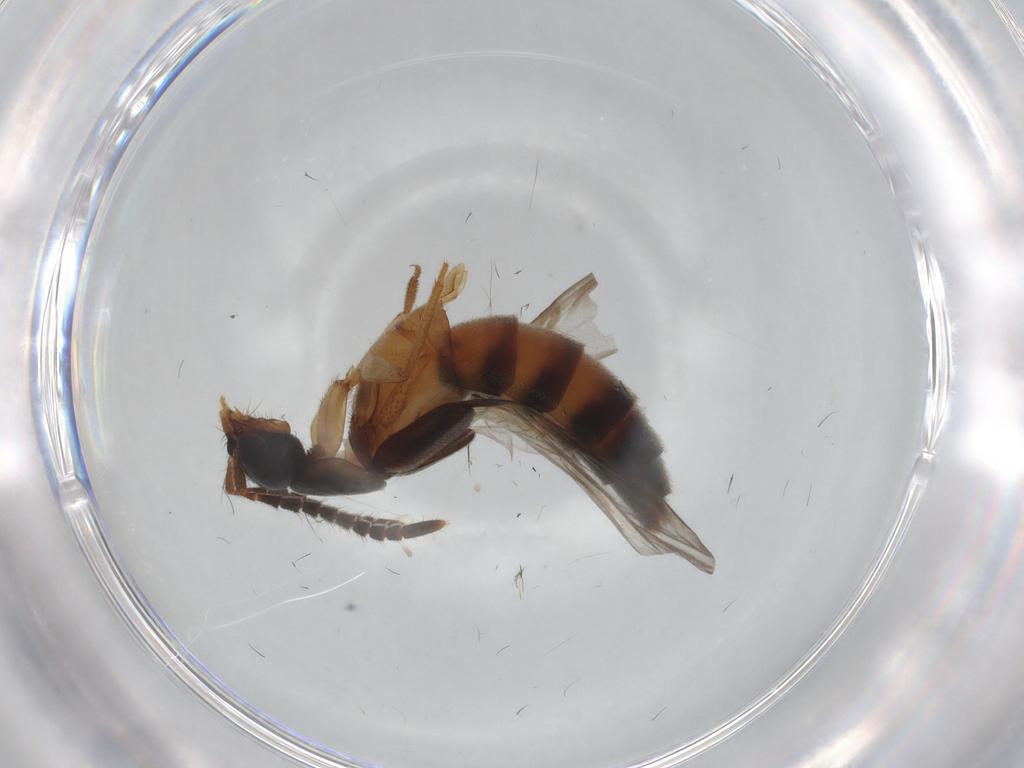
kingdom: Animalia
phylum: Arthropoda
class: Insecta
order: Coleoptera
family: Staphylinidae
